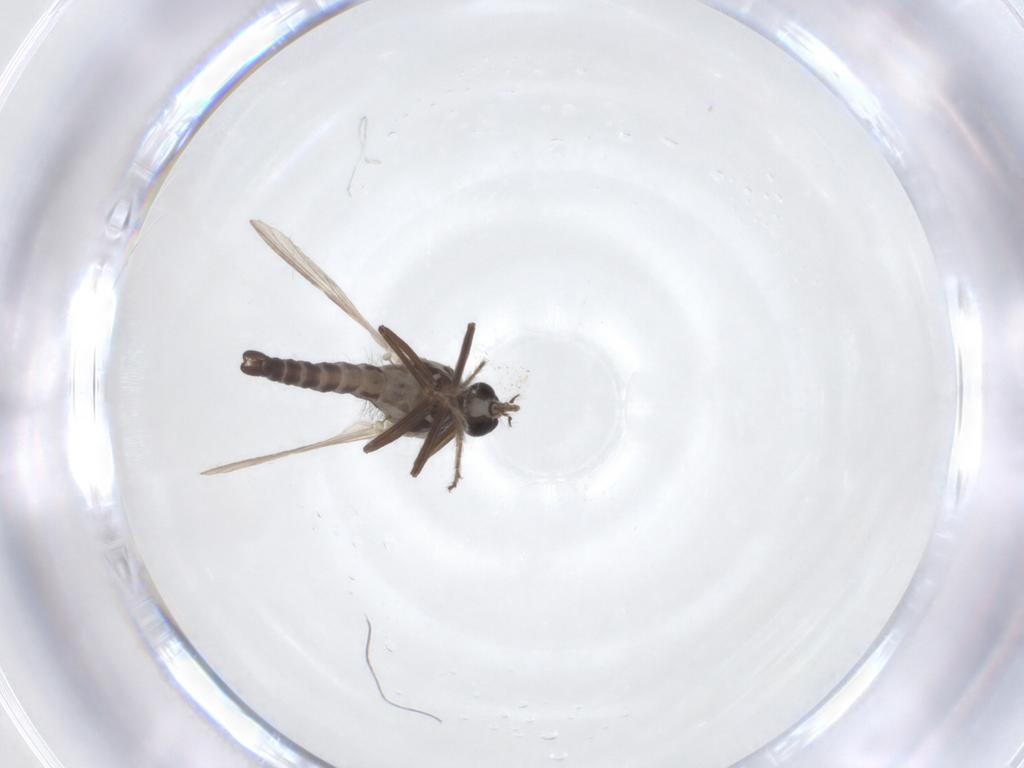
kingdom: Animalia
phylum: Arthropoda
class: Insecta
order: Diptera
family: Ceratopogonidae
